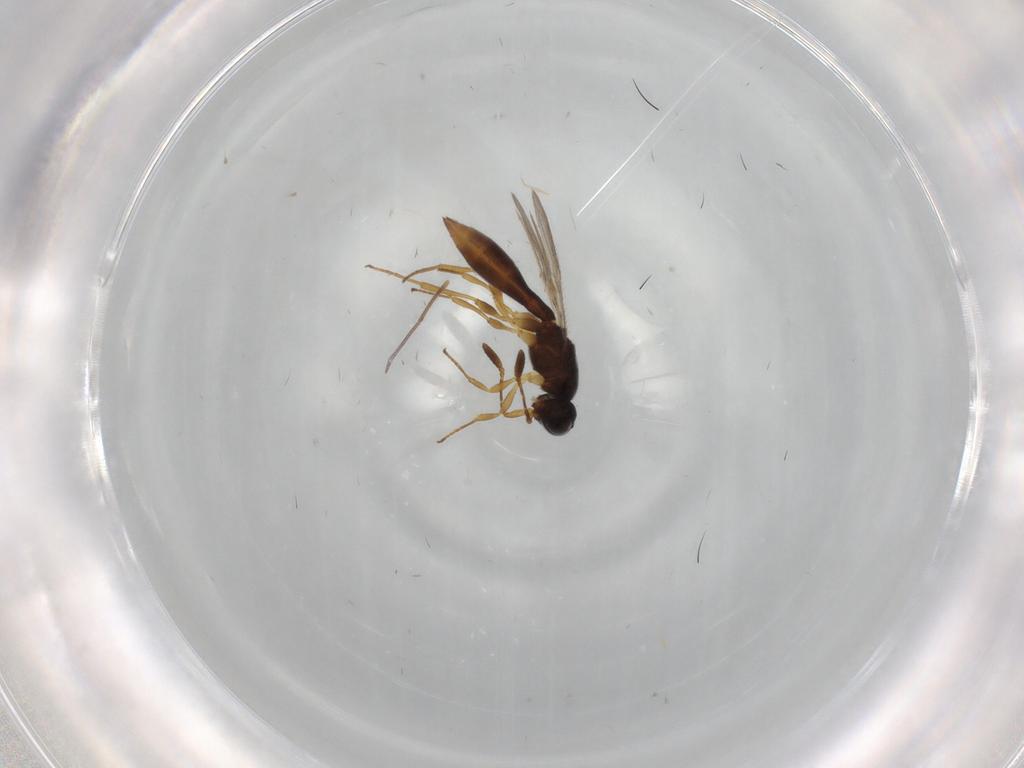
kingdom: Animalia
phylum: Arthropoda
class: Insecta
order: Hymenoptera
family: Scelionidae
